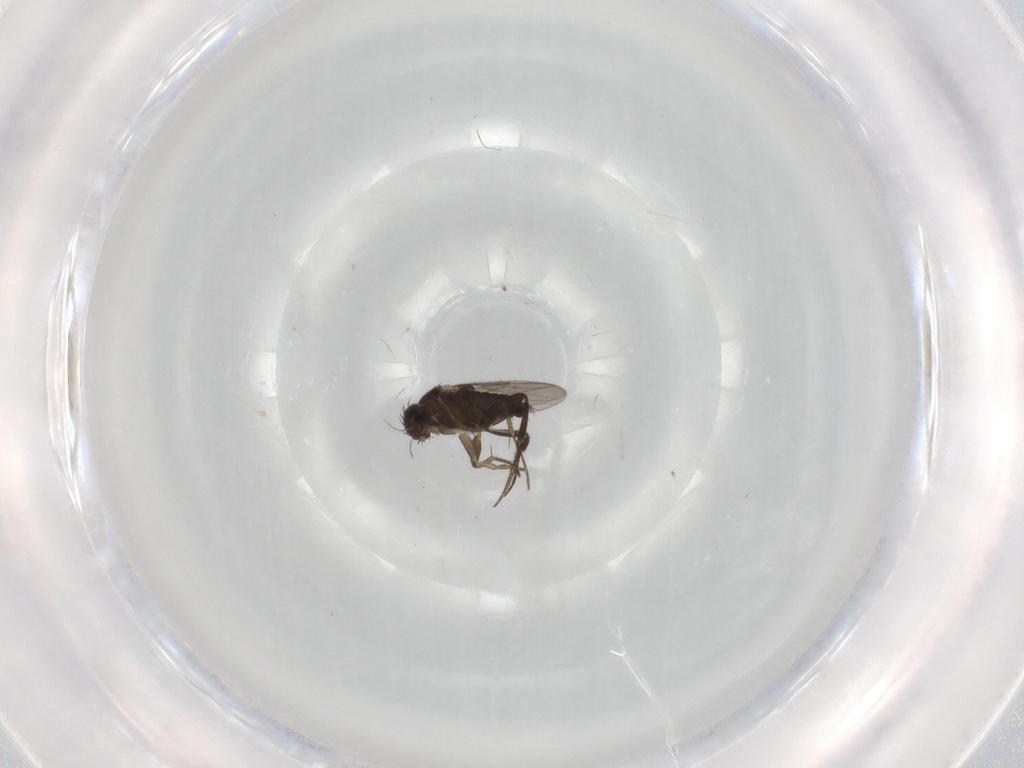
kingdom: Animalia
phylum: Arthropoda
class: Insecta
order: Diptera
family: Phoridae
